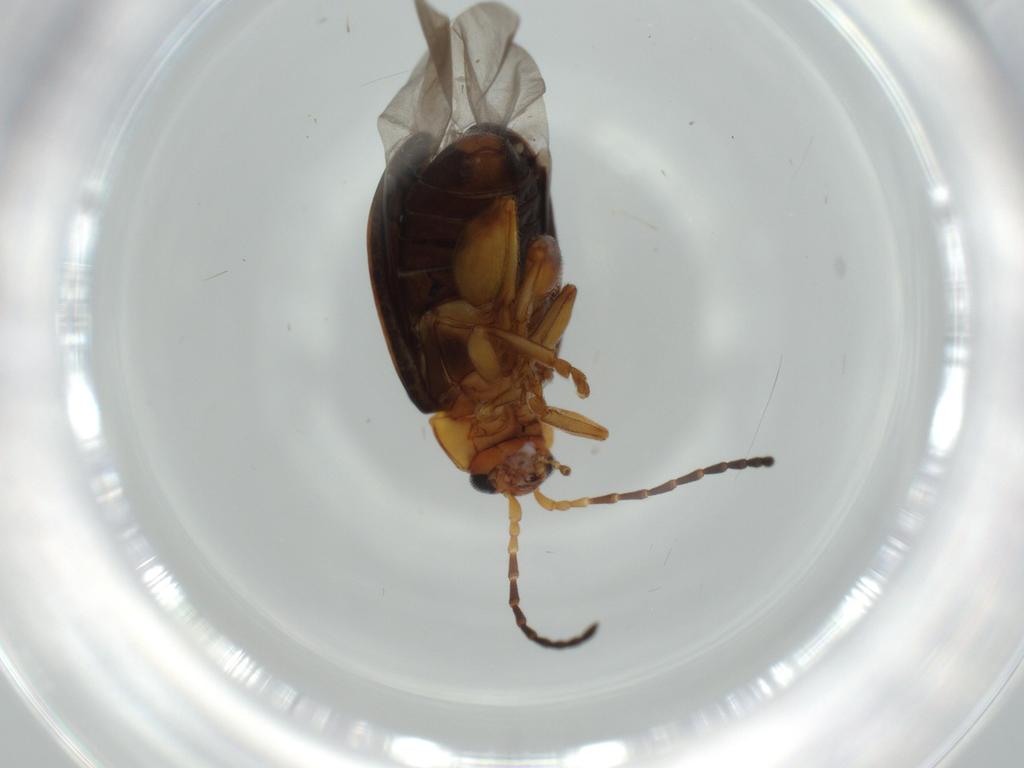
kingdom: Animalia
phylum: Arthropoda
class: Insecta
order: Coleoptera
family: Chrysomelidae
